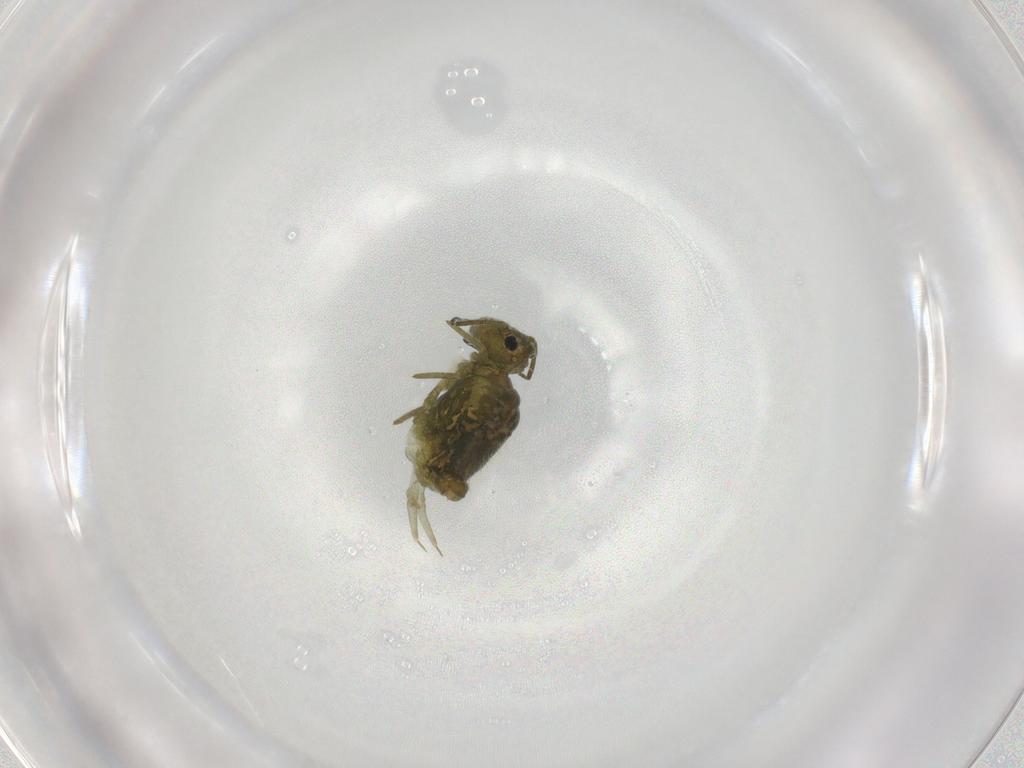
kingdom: Animalia
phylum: Arthropoda
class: Collembola
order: Symphypleona
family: Sminthuridae
